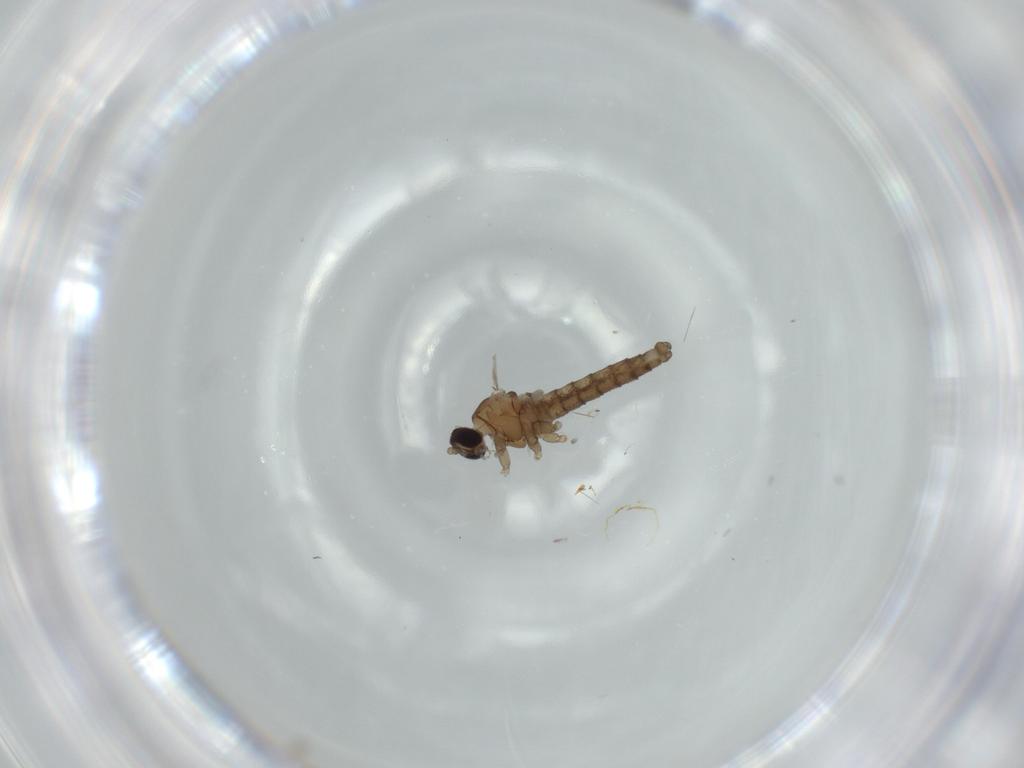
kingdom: Animalia
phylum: Arthropoda
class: Insecta
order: Diptera
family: Cecidomyiidae
